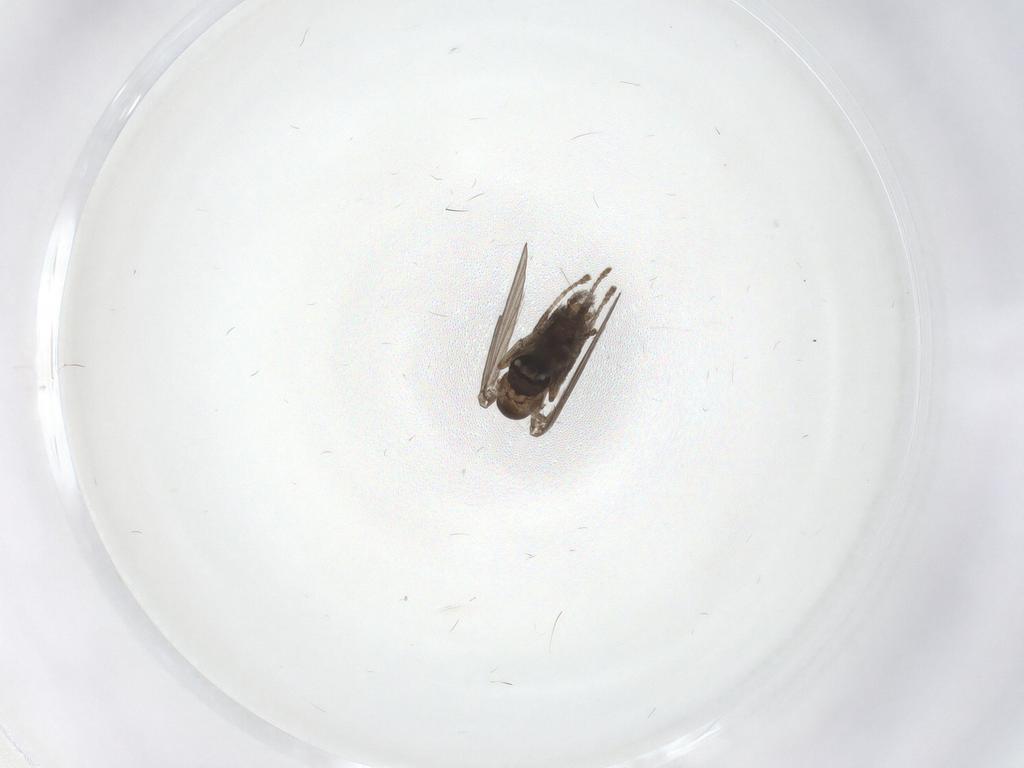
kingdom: Animalia
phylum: Arthropoda
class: Insecta
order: Diptera
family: Psychodidae
